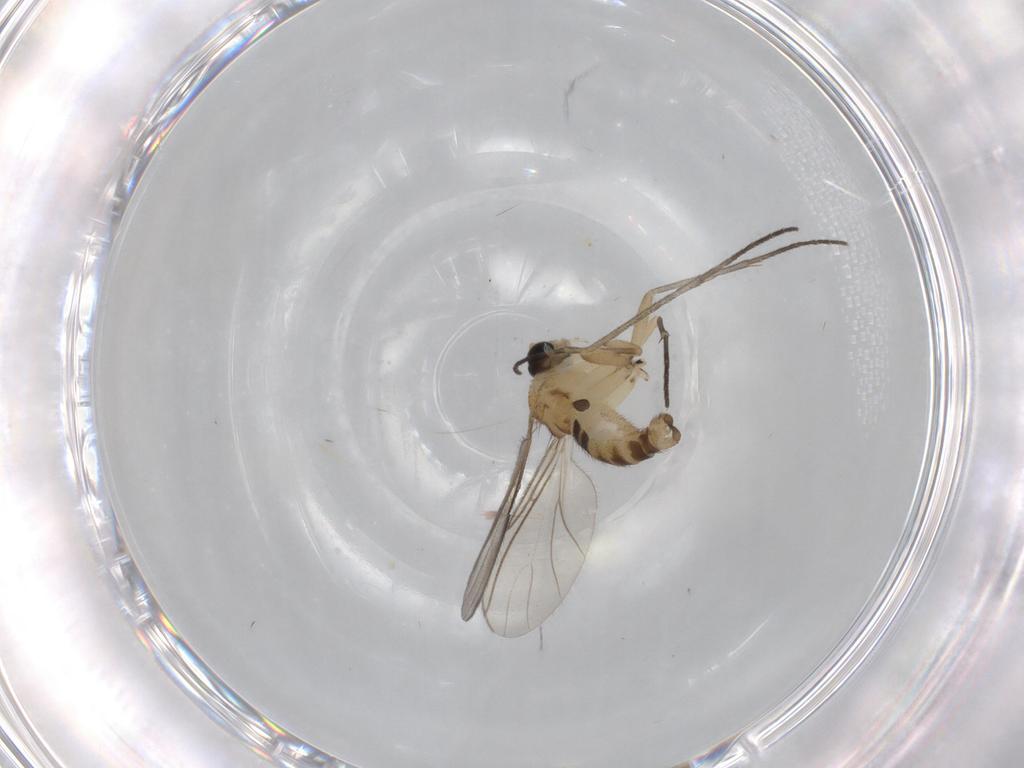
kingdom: Animalia
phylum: Arthropoda
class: Insecta
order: Diptera
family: Sciaridae
